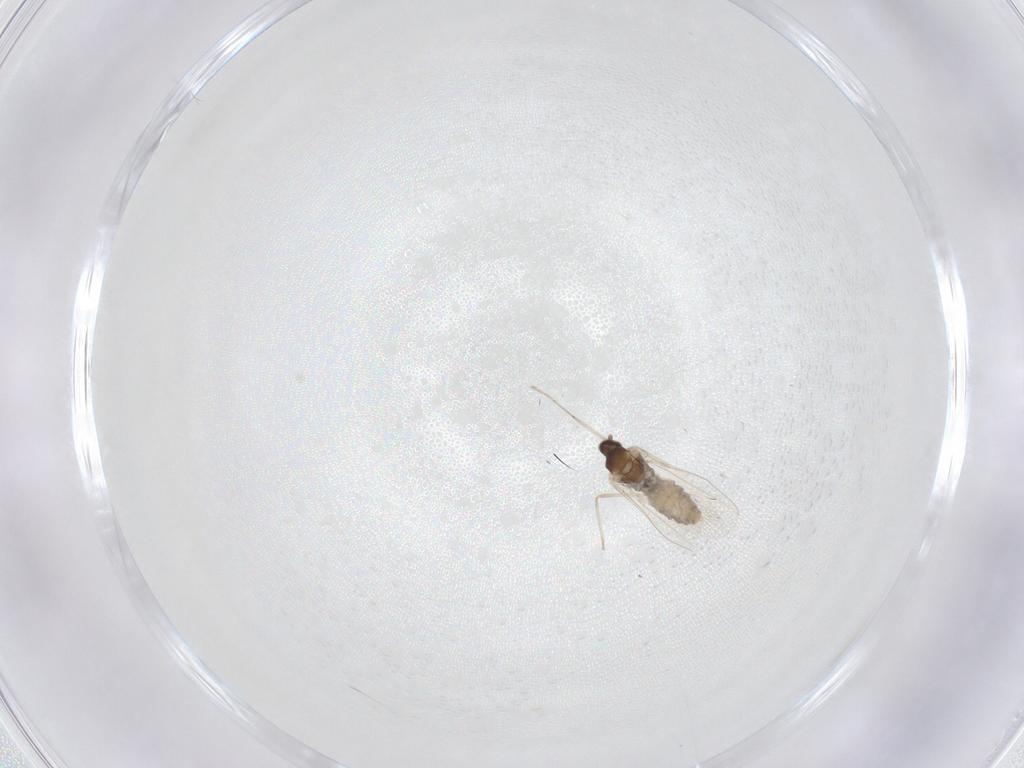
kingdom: Animalia
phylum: Arthropoda
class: Insecta
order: Diptera
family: Cecidomyiidae
